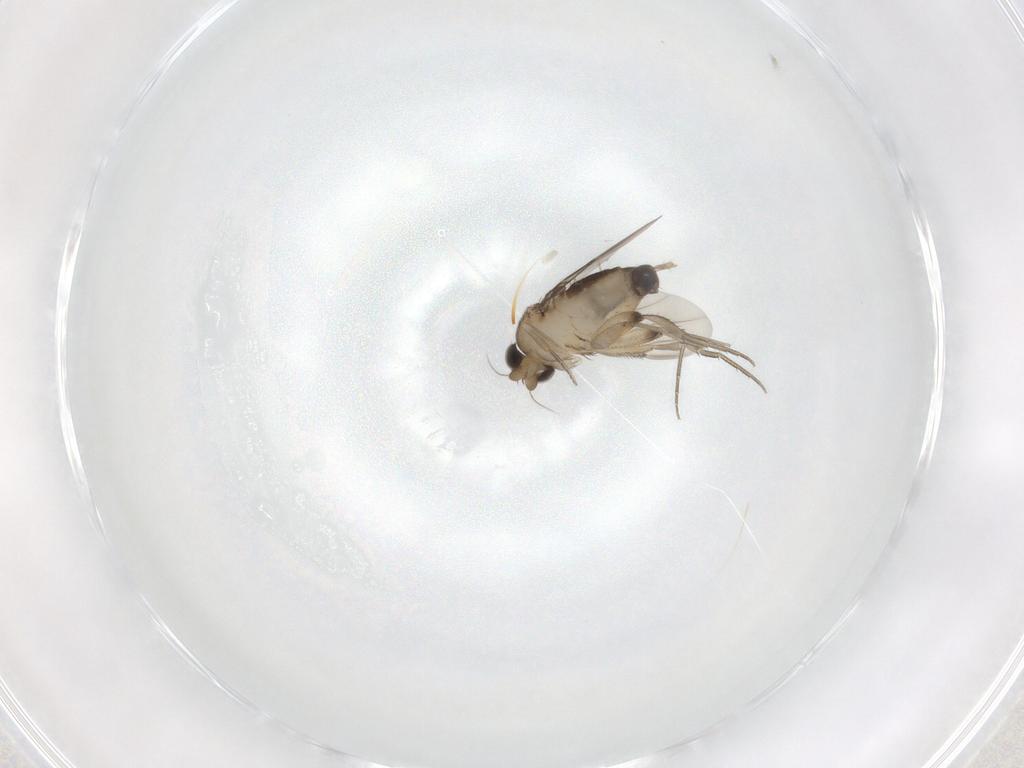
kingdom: Animalia
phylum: Arthropoda
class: Insecta
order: Diptera
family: Phoridae
